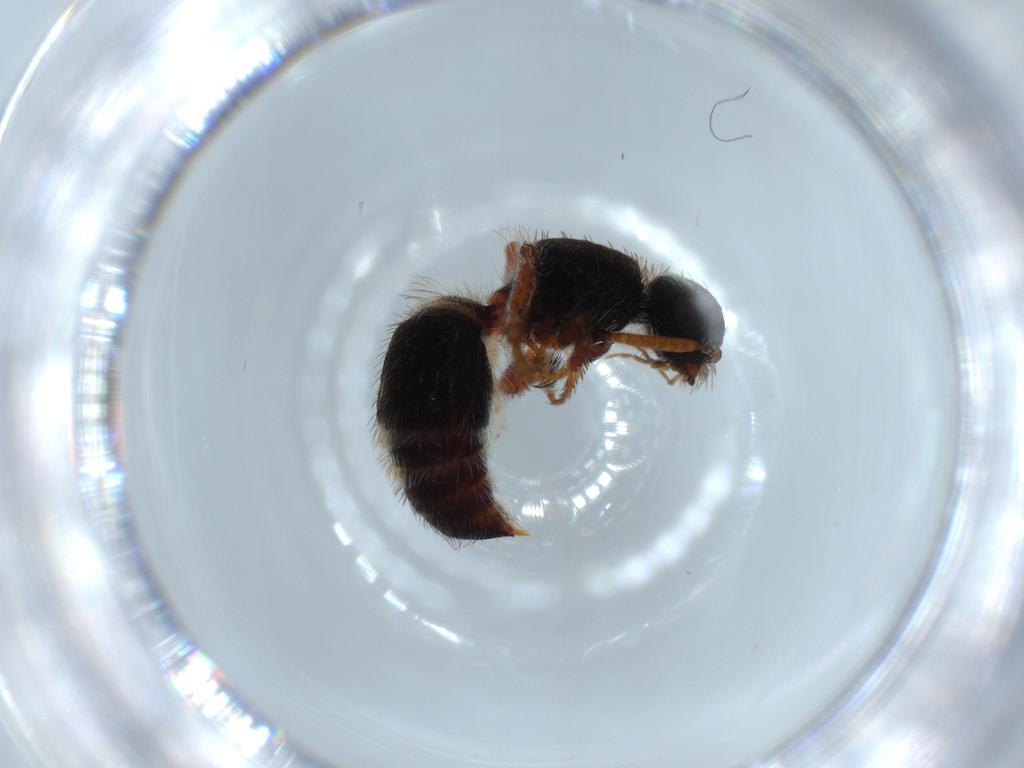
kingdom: Animalia
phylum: Arthropoda
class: Insecta
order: Hymenoptera
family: Platygastridae
